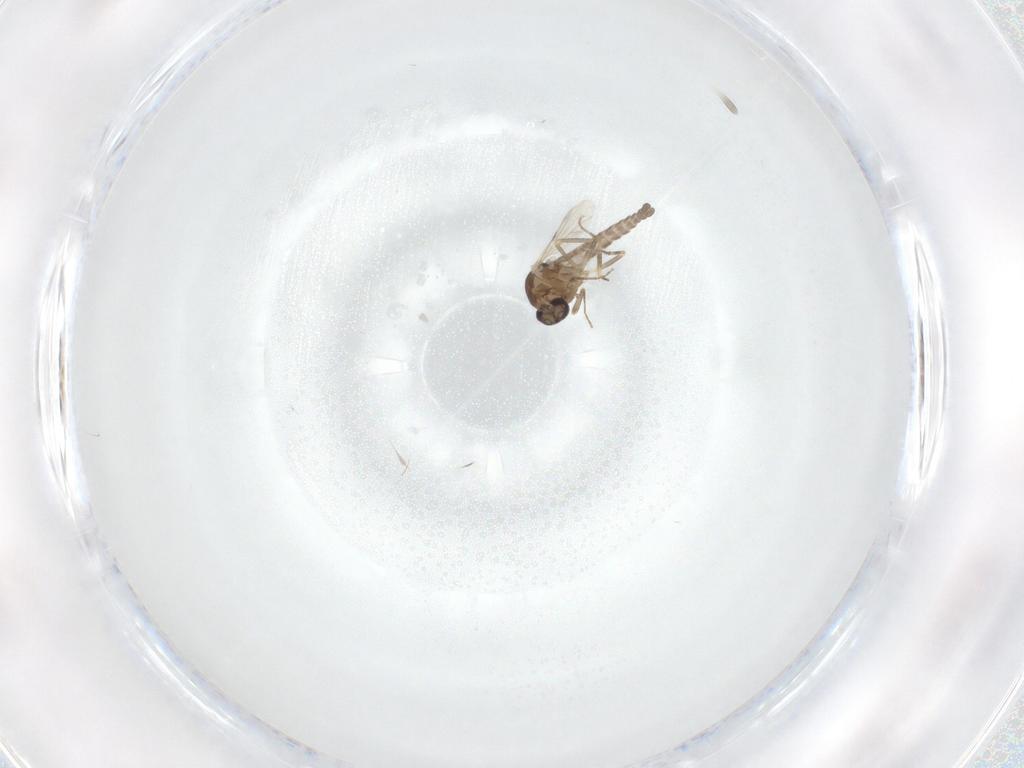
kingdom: Animalia
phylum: Arthropoda
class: Insecta
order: Diptera
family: Ceratopogonidae
